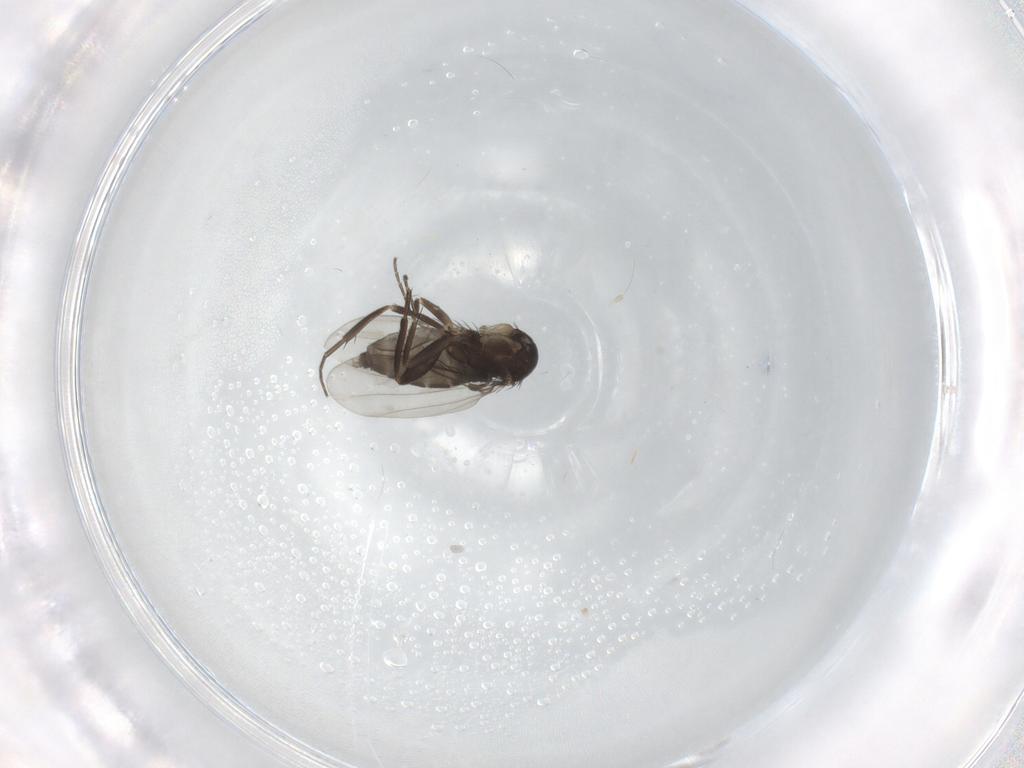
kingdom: Animalia
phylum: Arthropoda
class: Insecta
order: Diptera
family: Phoridae
